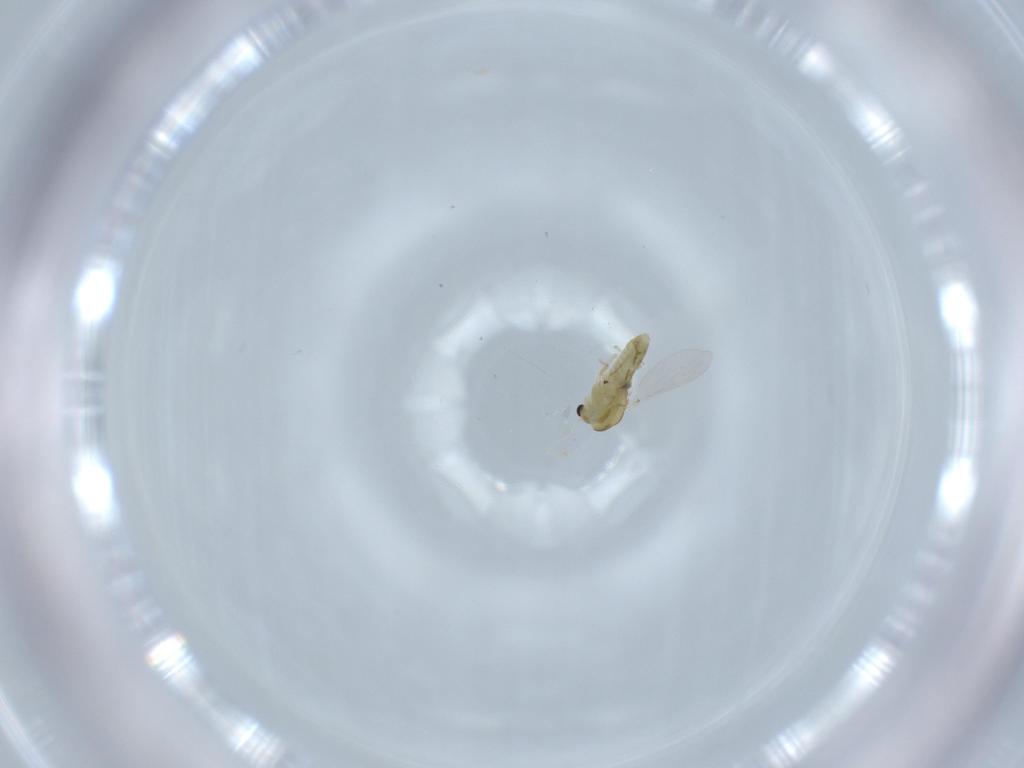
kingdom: Animalia
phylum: Arthropoda
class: Insecta
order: Diptera
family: Chironomidae
